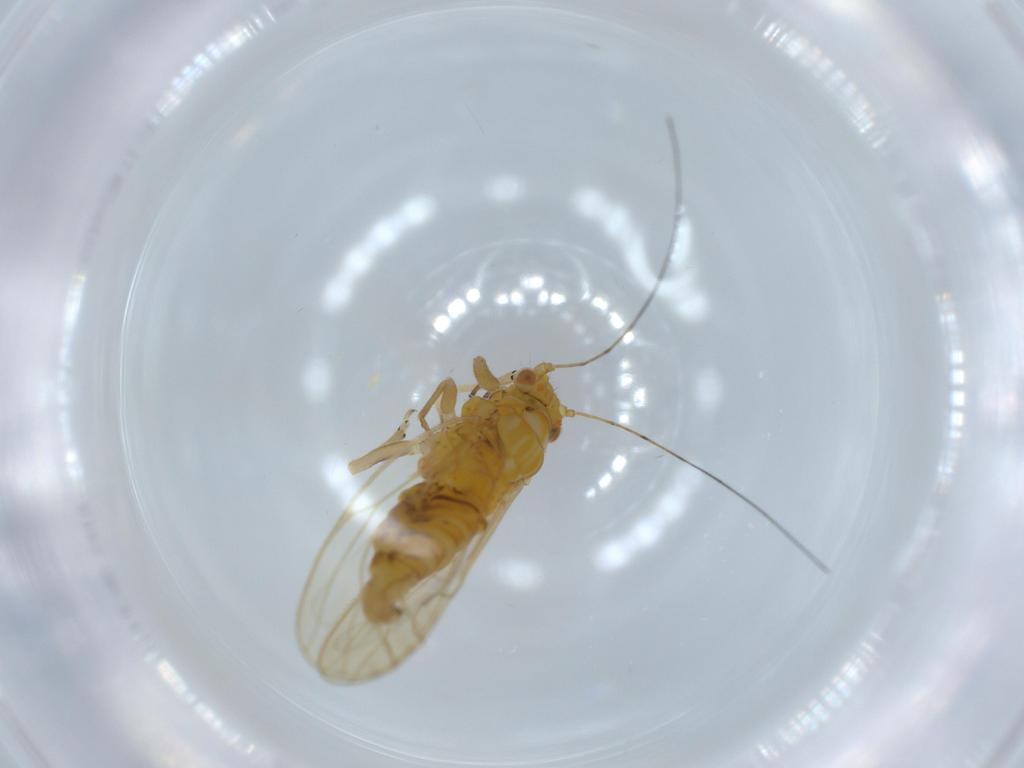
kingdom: Animalia
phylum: Arthropoda
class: Insecta
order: Hemiptera
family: Psyllidae
